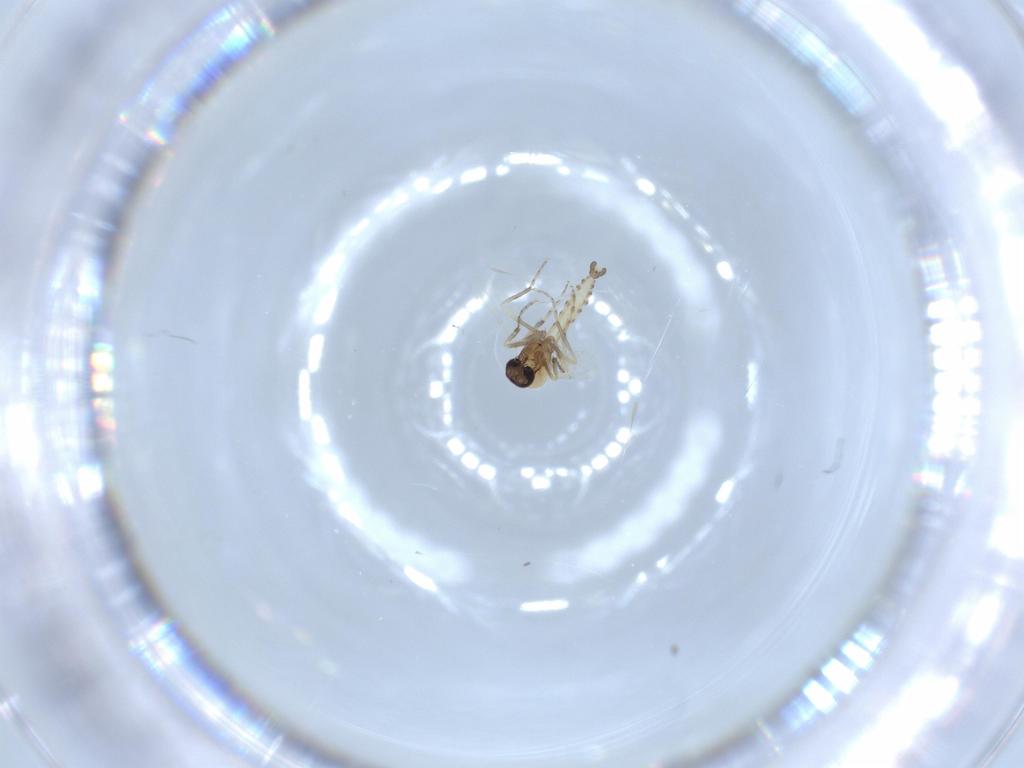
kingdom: Animalia
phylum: Arthropoda
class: Insecta
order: Diptera
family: Ceratopogonidae
